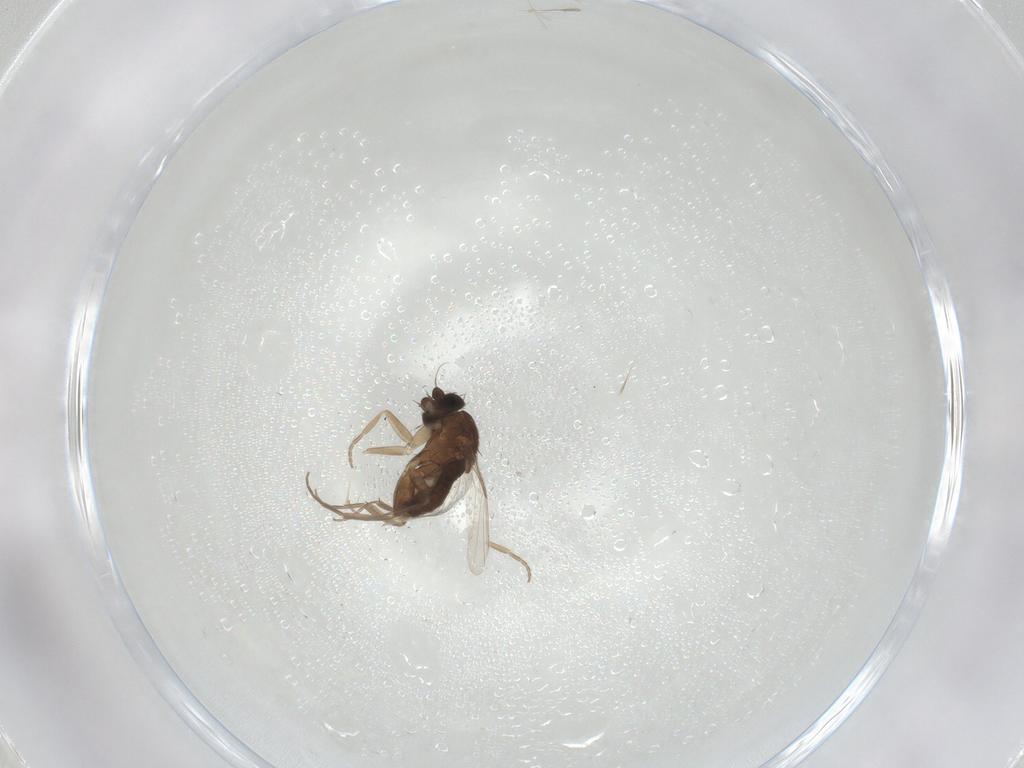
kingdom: Animalia
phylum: Arthropoda
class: Insecta
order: Diptera
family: Phoridae
